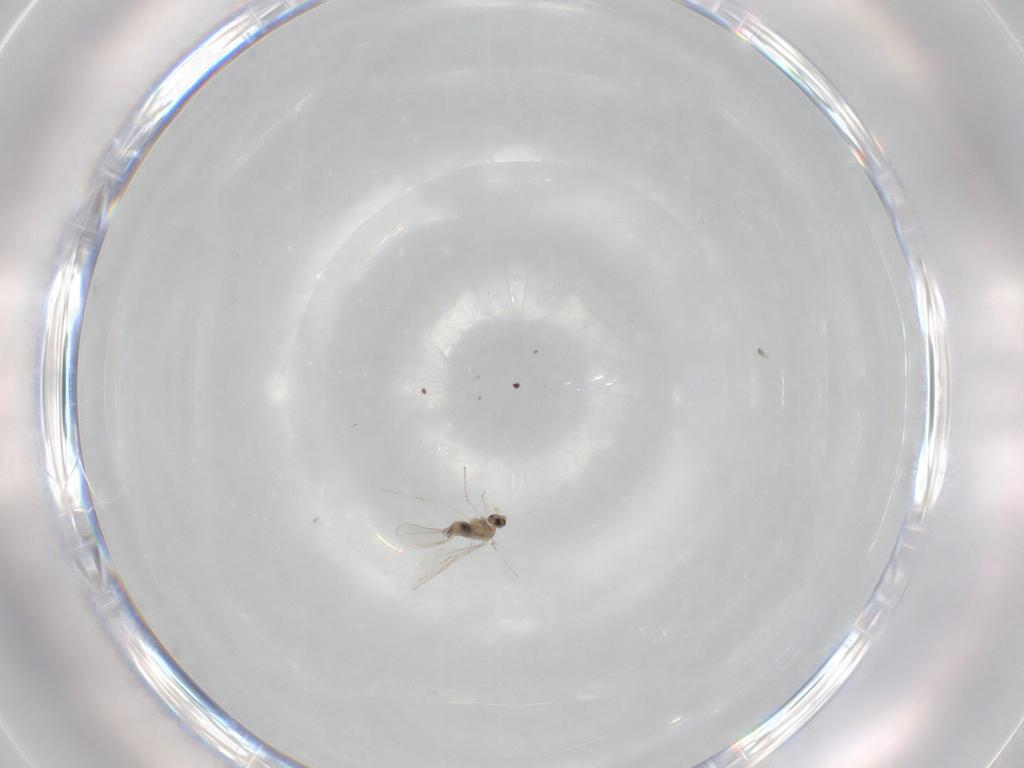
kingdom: Animalia
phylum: Arthropoda
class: Insecta
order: Diptera
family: Cecidomyiidae
